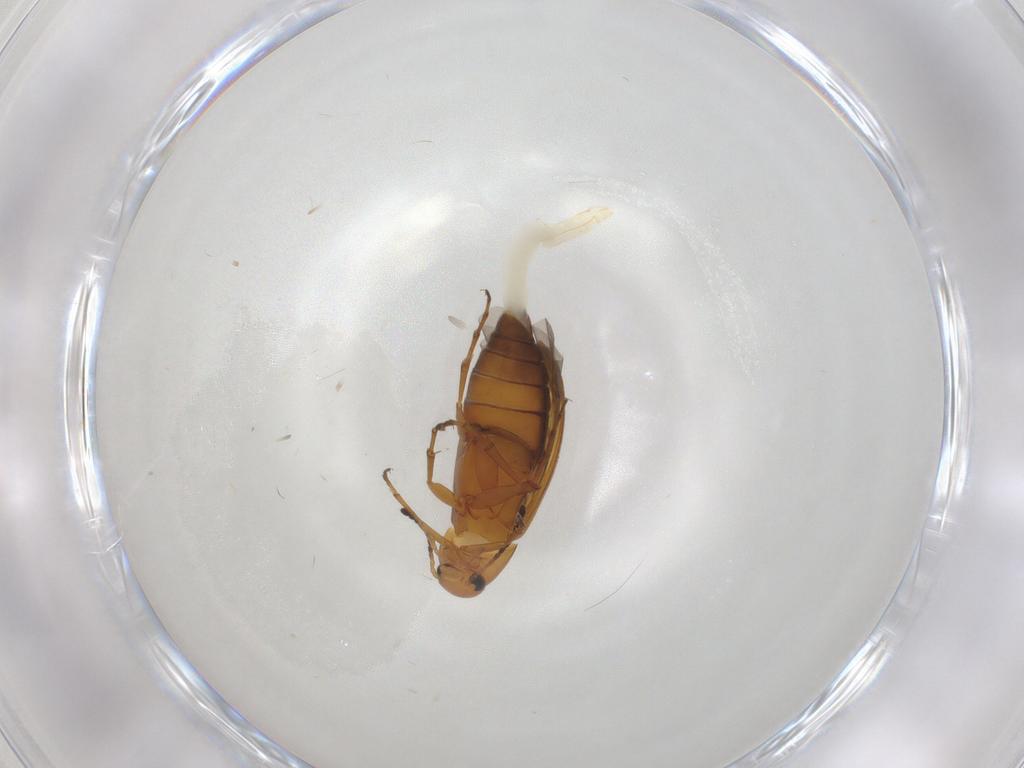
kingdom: Animalia
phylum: Arthropoda
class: Insecta
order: Coleoptera
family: Scraptiidae
